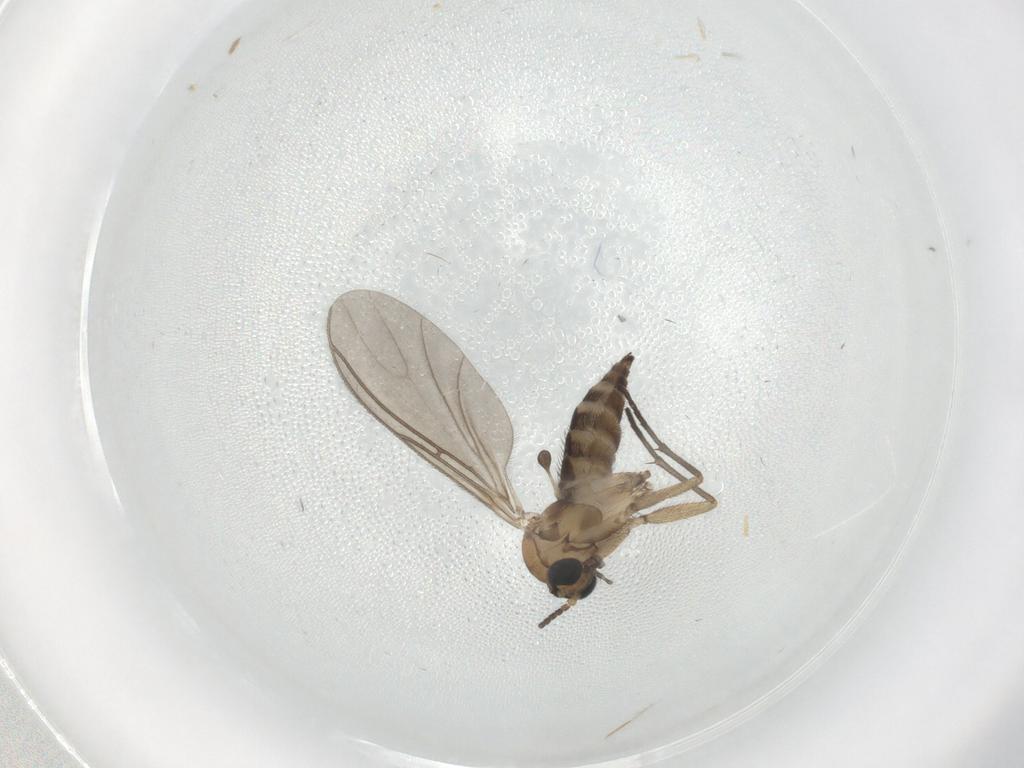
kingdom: Animalia
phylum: Arthropoda
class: Insecta
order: Diptera
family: Sciaridae
